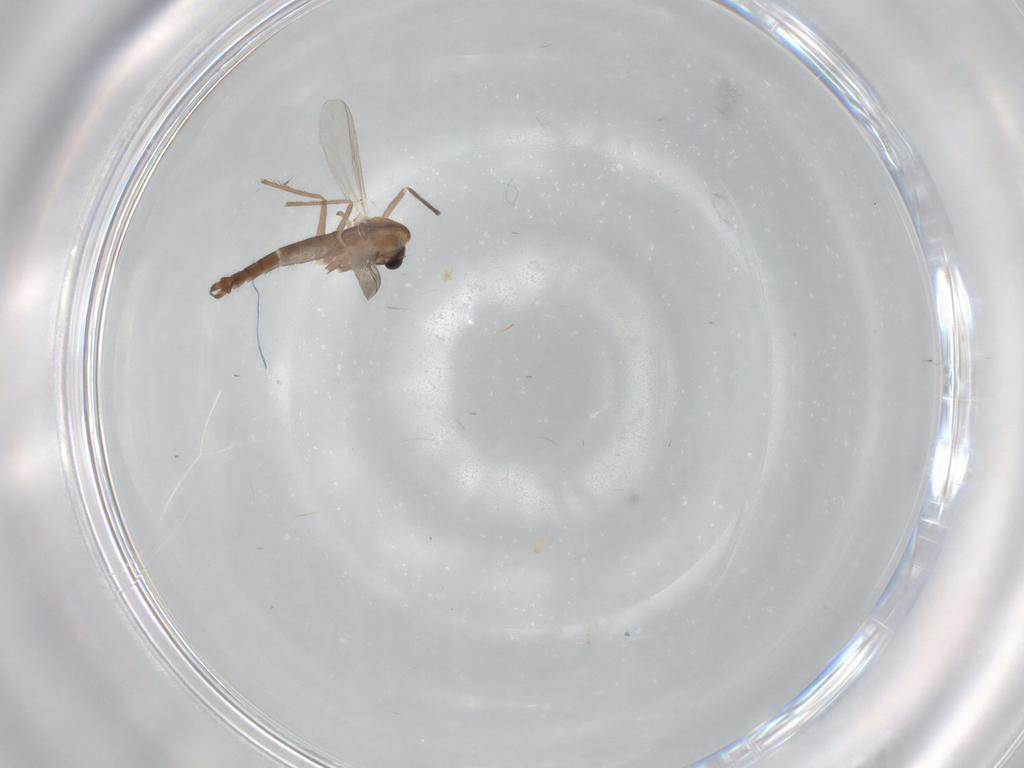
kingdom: Animalia
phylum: Arthropoda
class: Insecta
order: Diptera
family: Chironomidae
